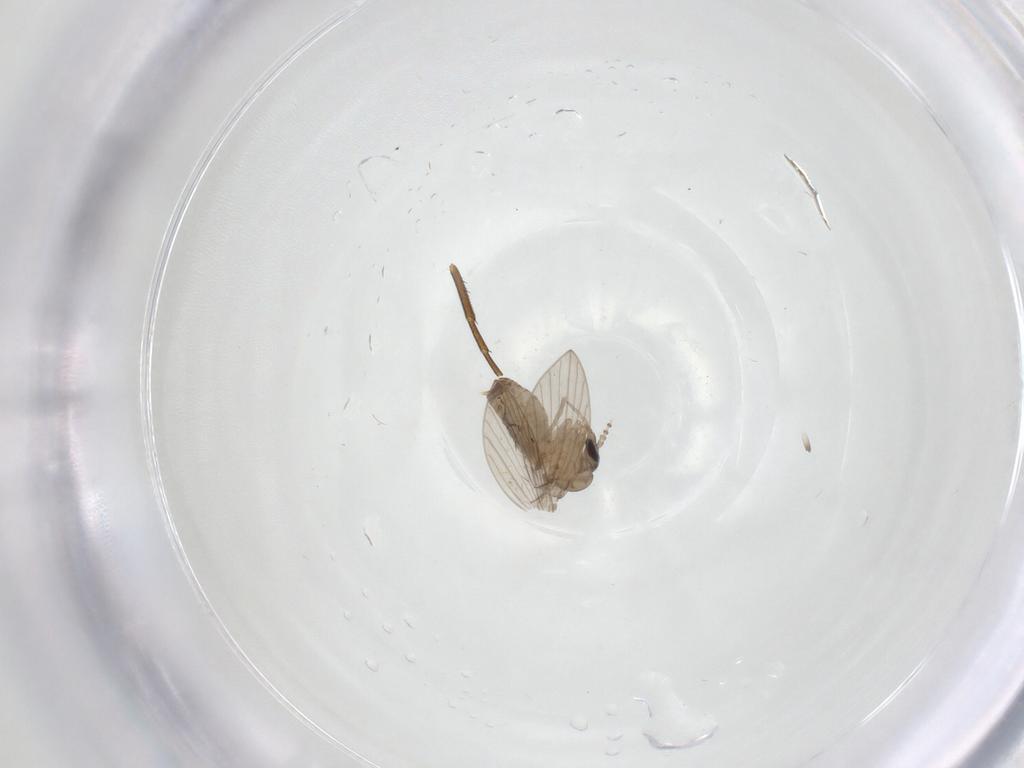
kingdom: Animalia
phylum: Arthropoda
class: Insecta
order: Diptera
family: Psychodidae
